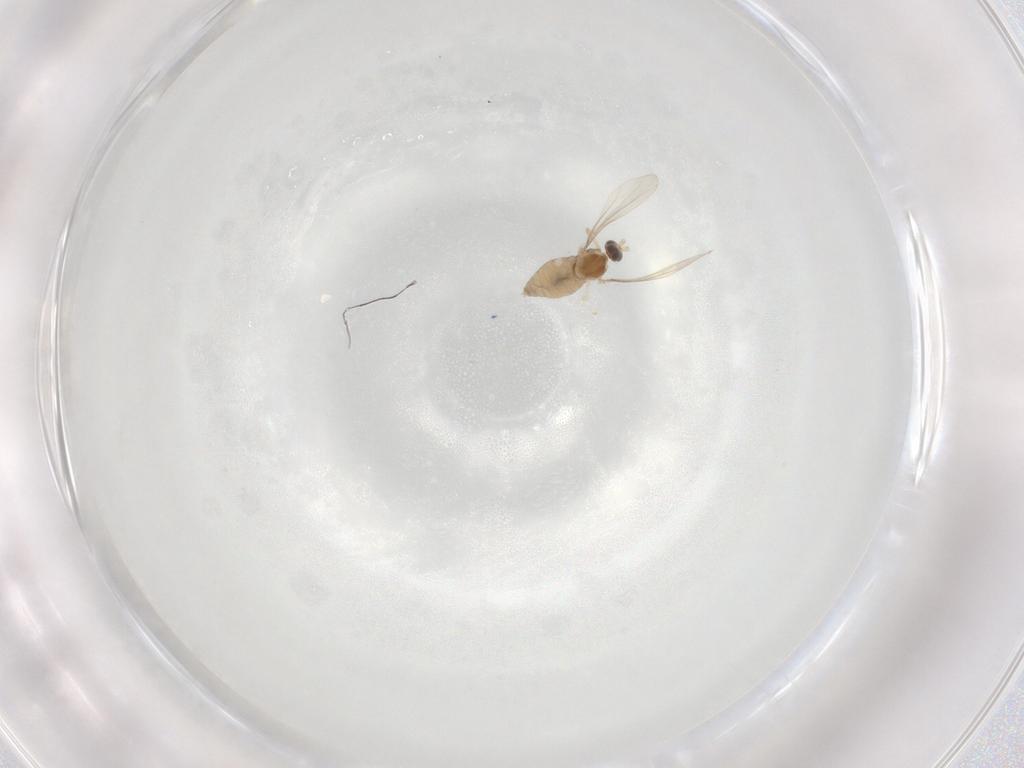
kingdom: Animalia
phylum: Arthropoda
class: Insecta
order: Diptera
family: Cecidomyiidae
